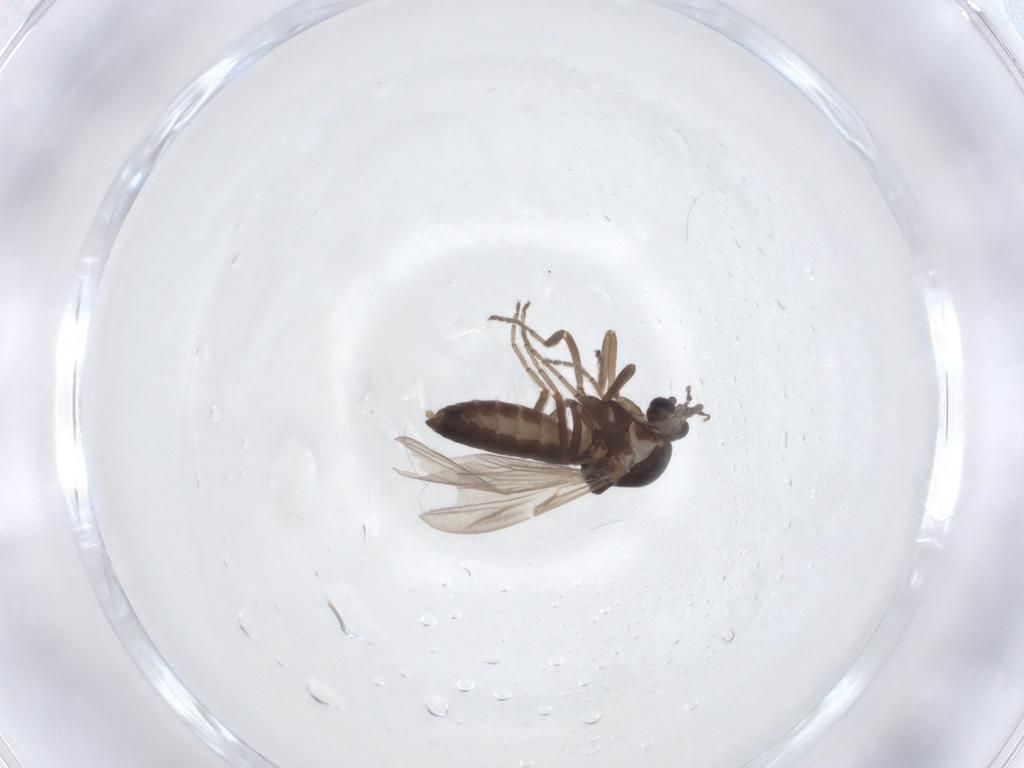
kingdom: Animalia
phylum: Arthropoda
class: Insecta
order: Diptera
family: Ceratopogonidae
